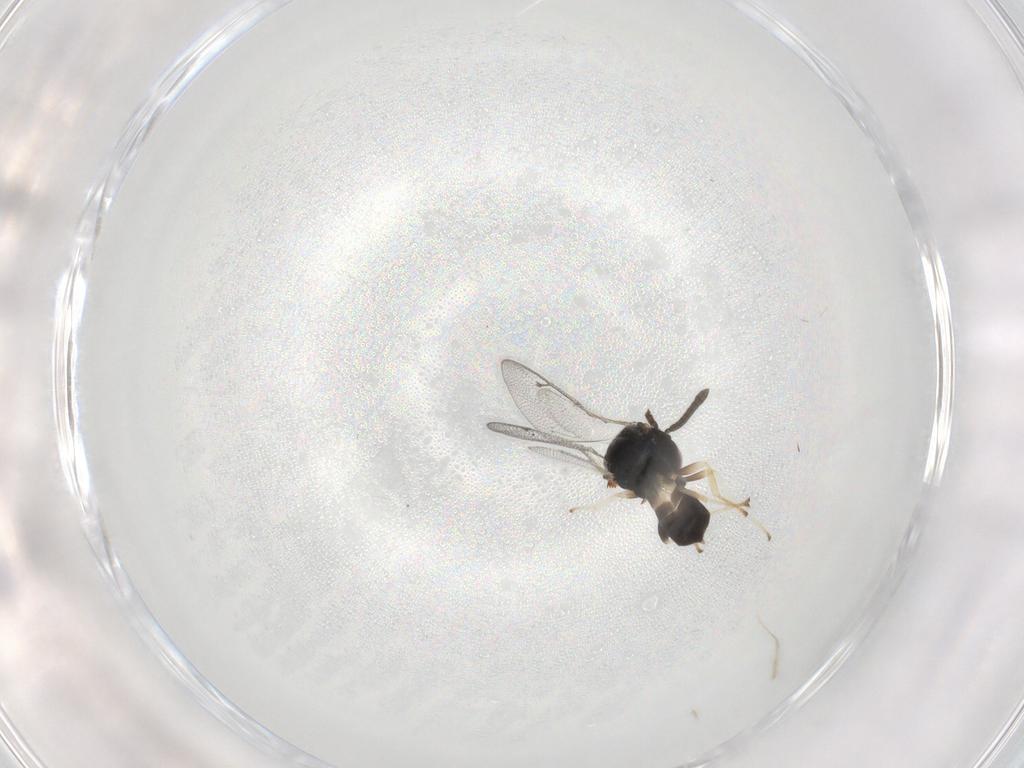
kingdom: Animalia
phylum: Arthropoda
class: Insecta
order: Hymenoptera
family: Pteromalidae
